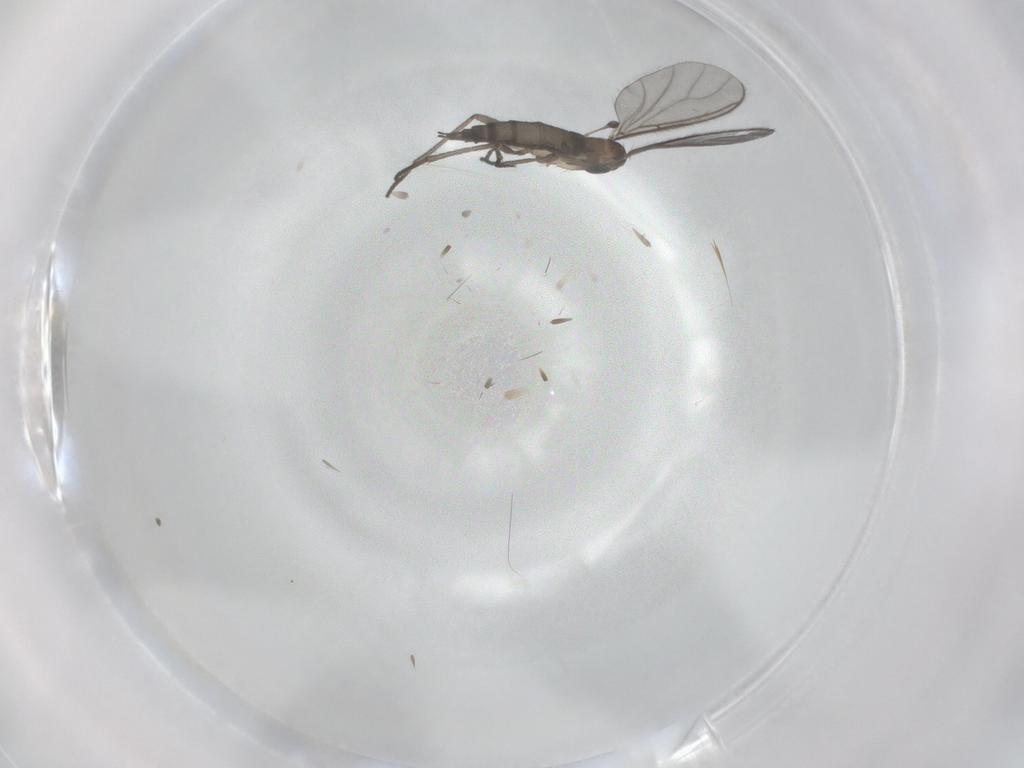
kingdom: Animalia
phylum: Arthropoda
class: Insecta
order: Diptera
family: Sciaridae
